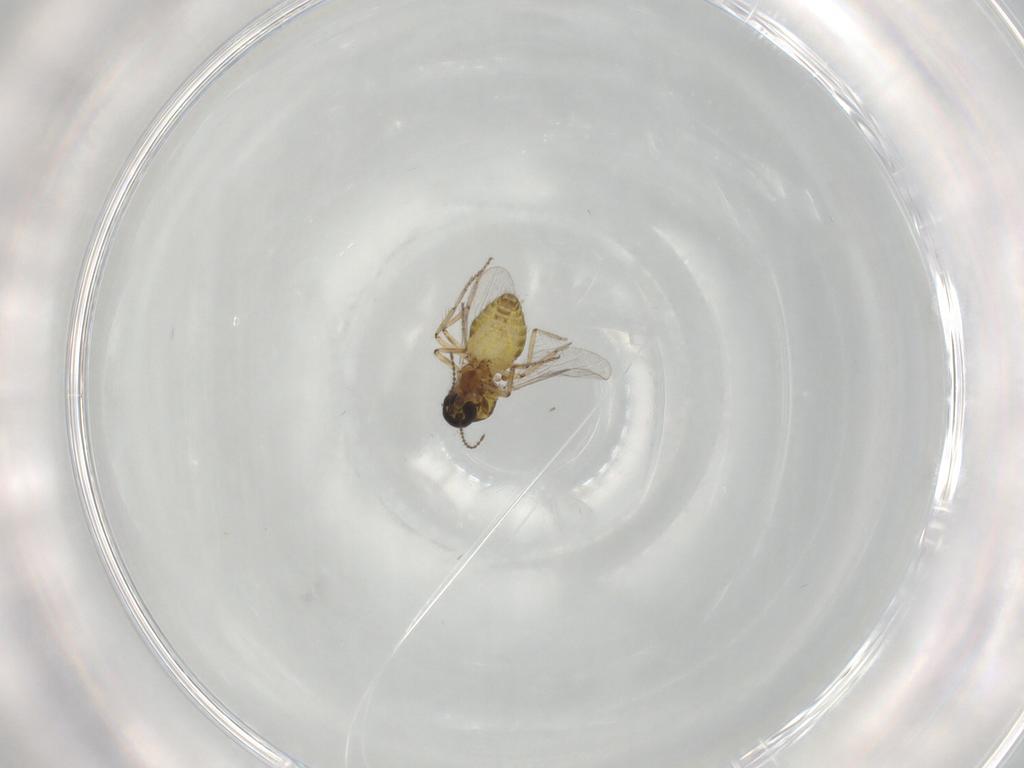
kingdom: Animalia
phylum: Arthropoda
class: Insecta
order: Diptera
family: Ceratopogonidae
